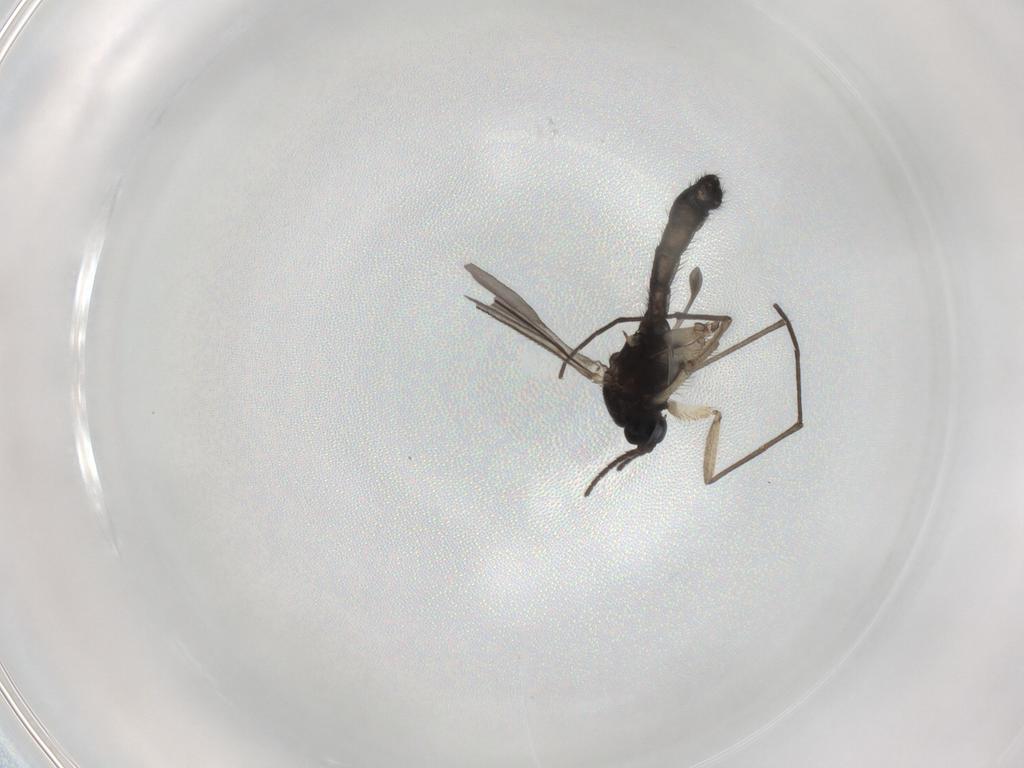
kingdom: Animalia
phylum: Arthropoda
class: Insecta
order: Diptera
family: Sciaridae
